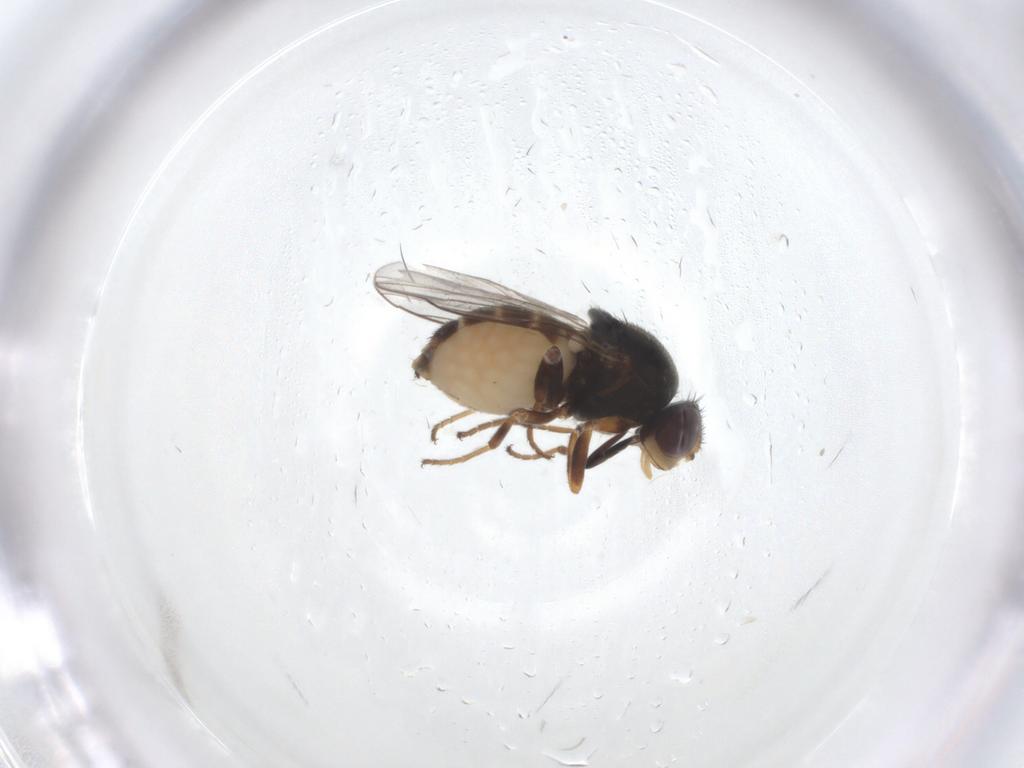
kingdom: Animalia
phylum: Arthropoda
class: Insecta
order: Diptera
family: Chloropidae
